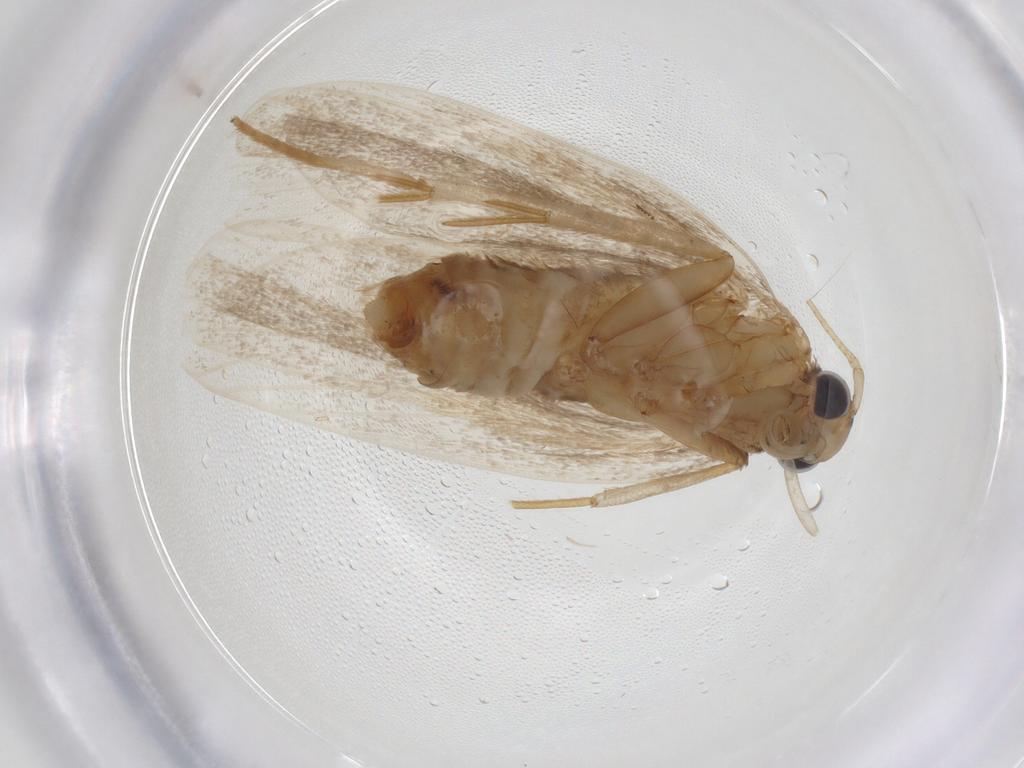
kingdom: Animalia
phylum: Arthropoda
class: Insecta
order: Lepidoptera
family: Lecithoceridae
